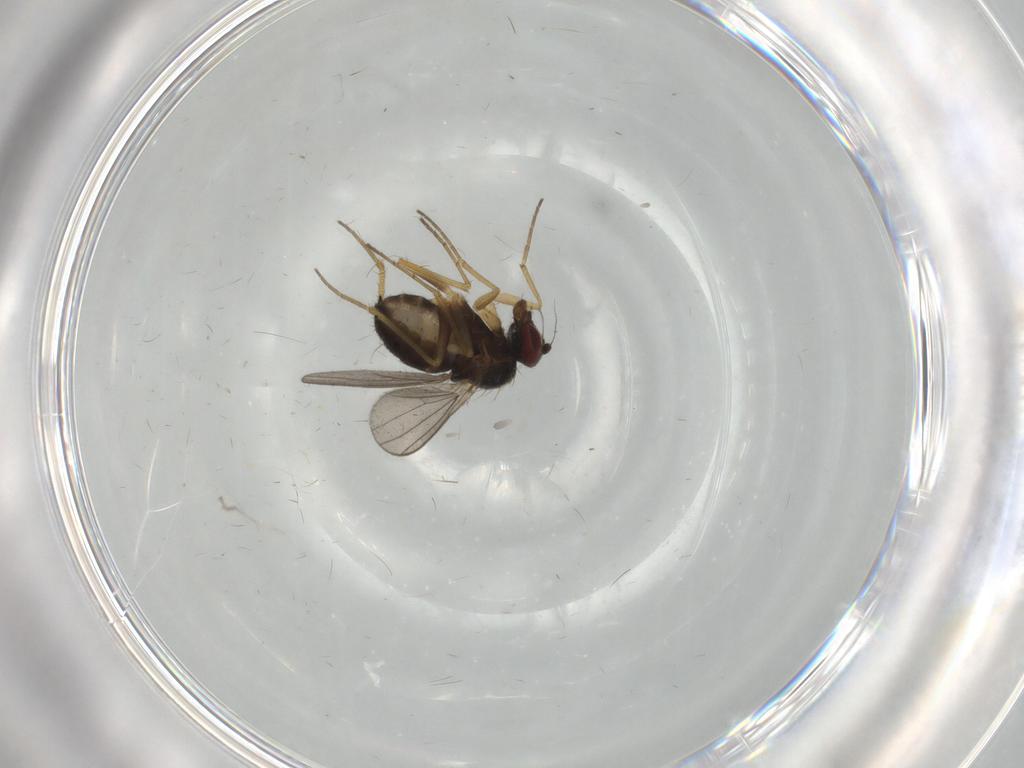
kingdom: Animalia
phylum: Arthropoda
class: Insecta
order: Diptera
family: Dolichopodidae
